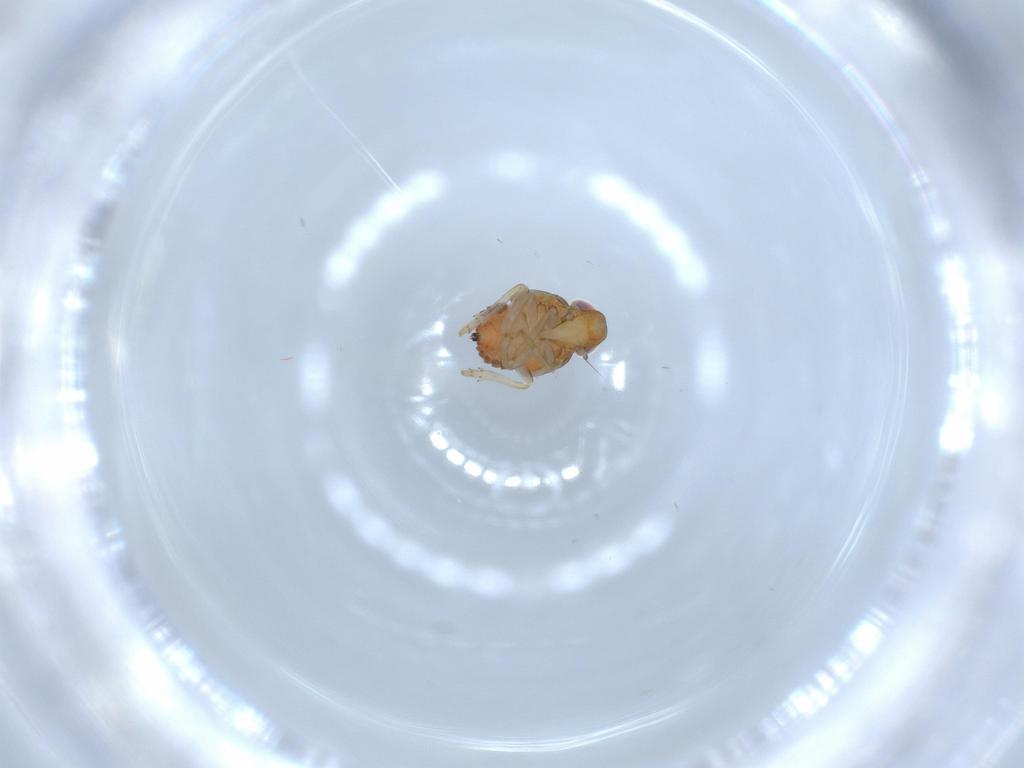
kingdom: Animalia
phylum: Arthropoda
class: Insecta
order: Hemiptera
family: Issidae
